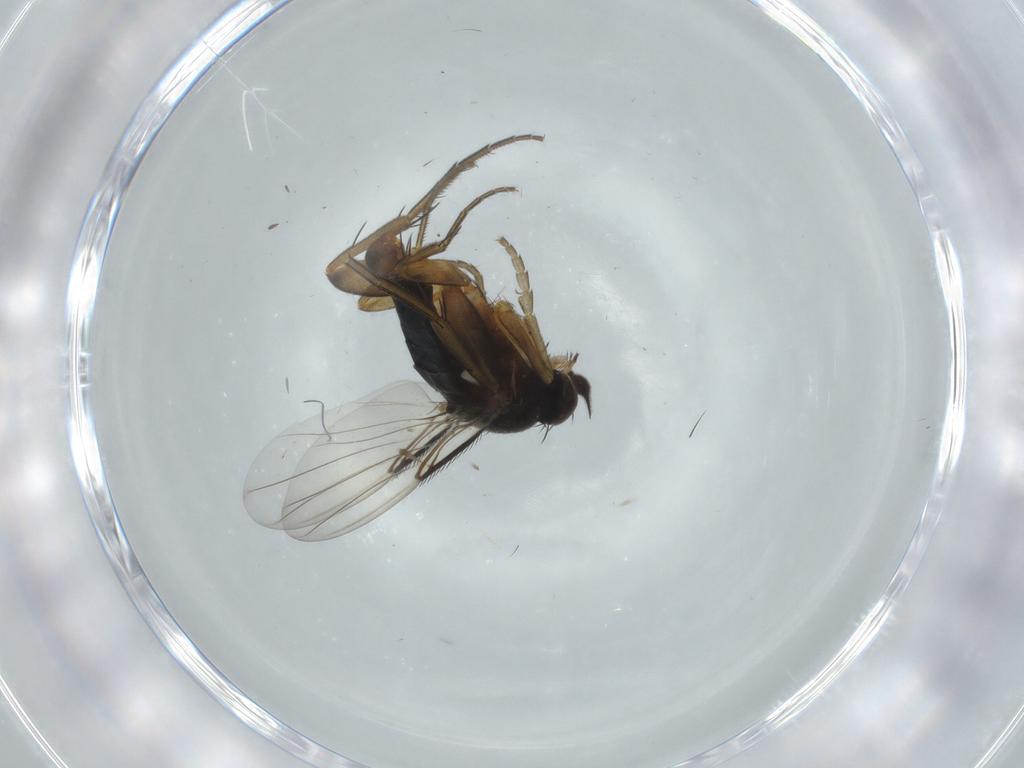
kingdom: Animalia
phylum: Arthropoda
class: Insecta
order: Diptera
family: Phoridae
